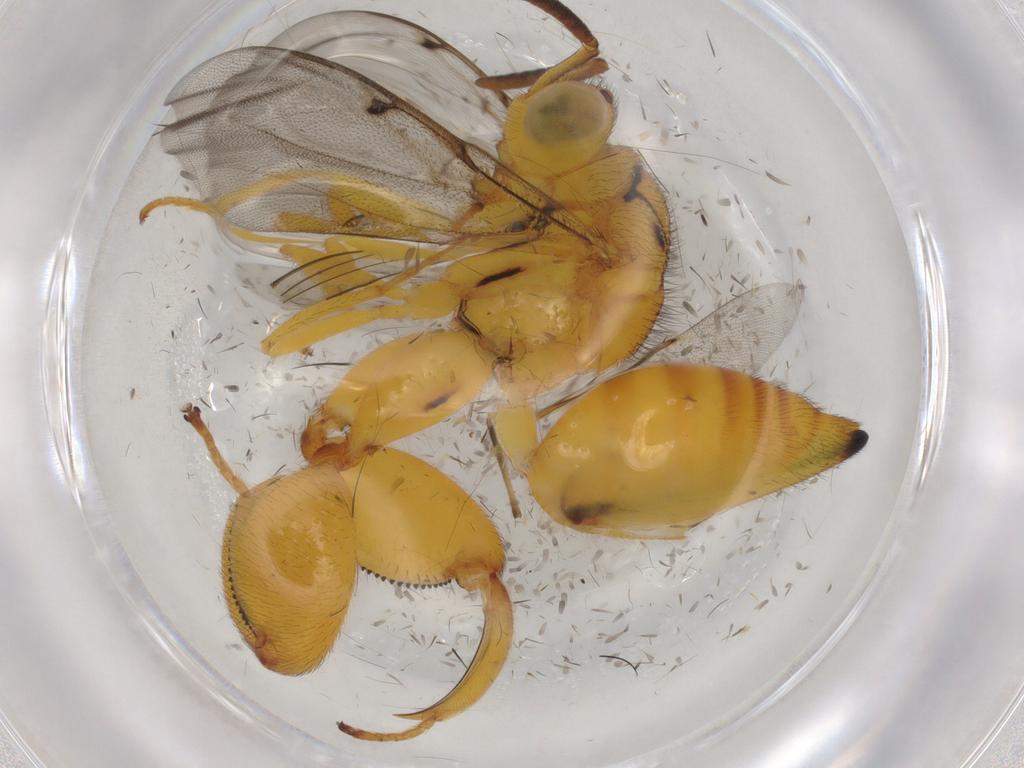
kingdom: Animalia
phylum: Arthropoda
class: Insecta
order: Hymenoptera
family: Chalcididae
